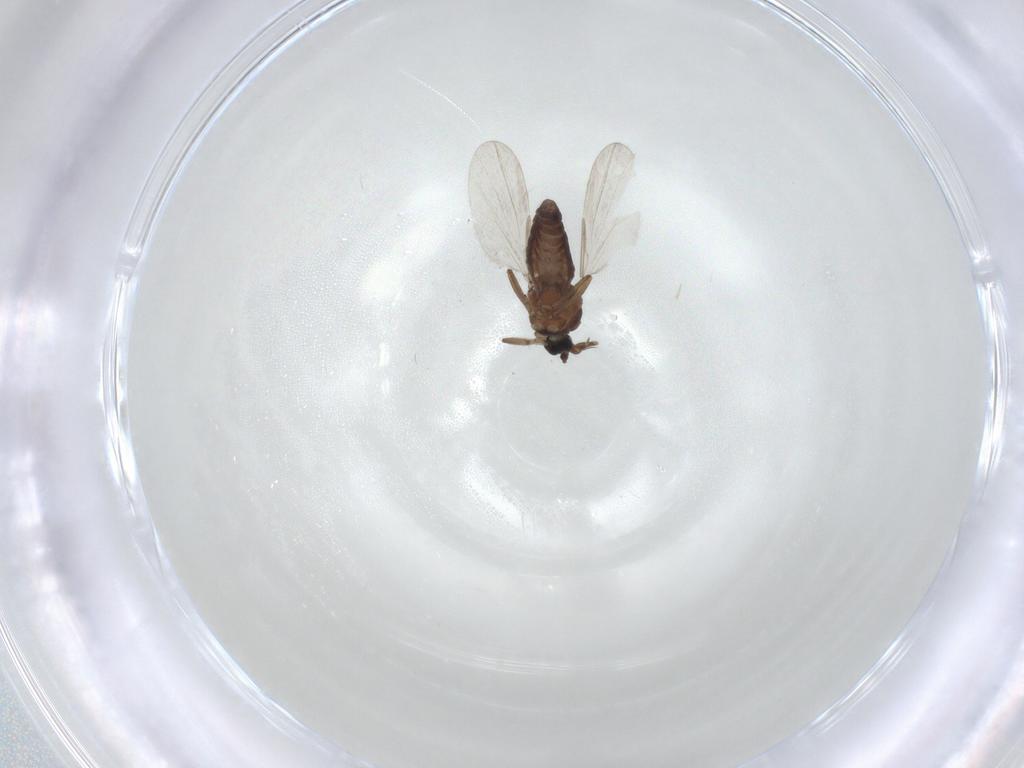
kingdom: Animalia
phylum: Arthropoda
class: Insecta
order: Diptera
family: Ceratopogonidae
